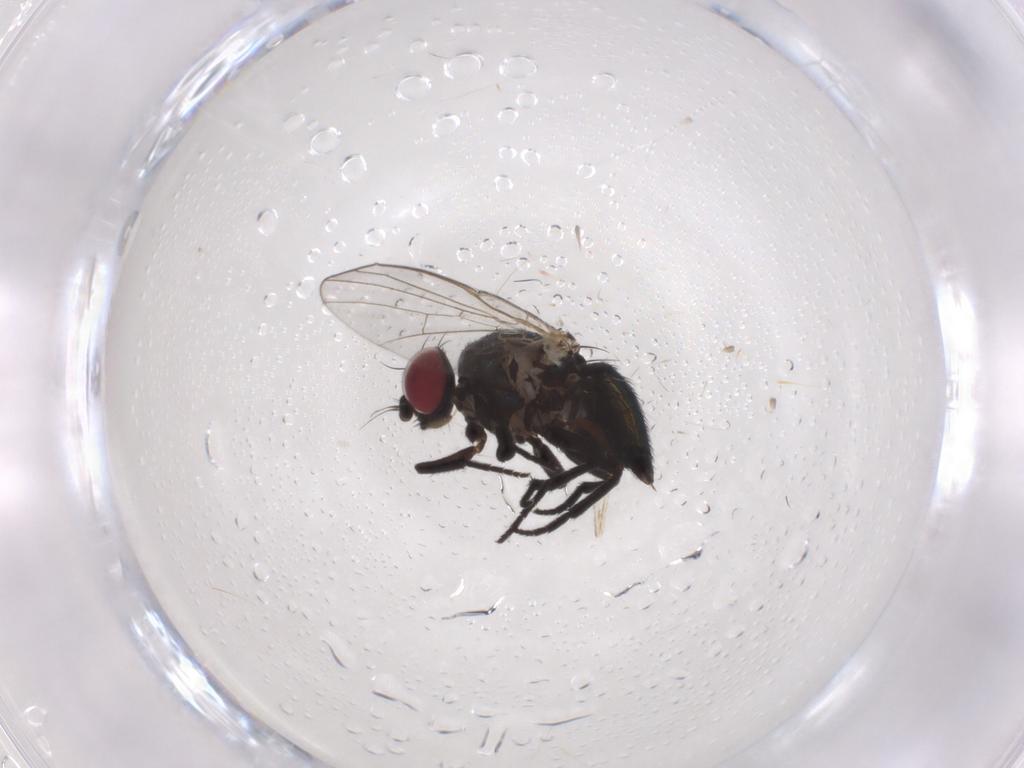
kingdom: Animalia
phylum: Arthropoda
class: Insecta
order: Diptera
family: Agromyzidae
